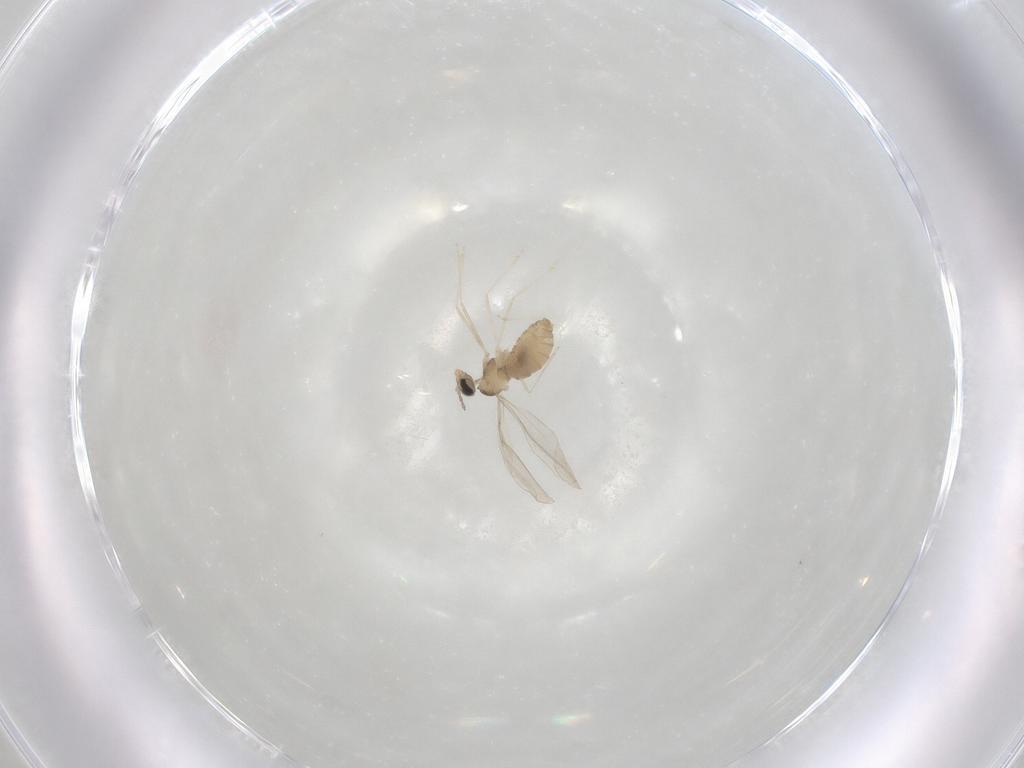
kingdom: Animalia
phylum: Arthropoda
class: Insecta
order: Diptera
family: Cecidomyiidae
